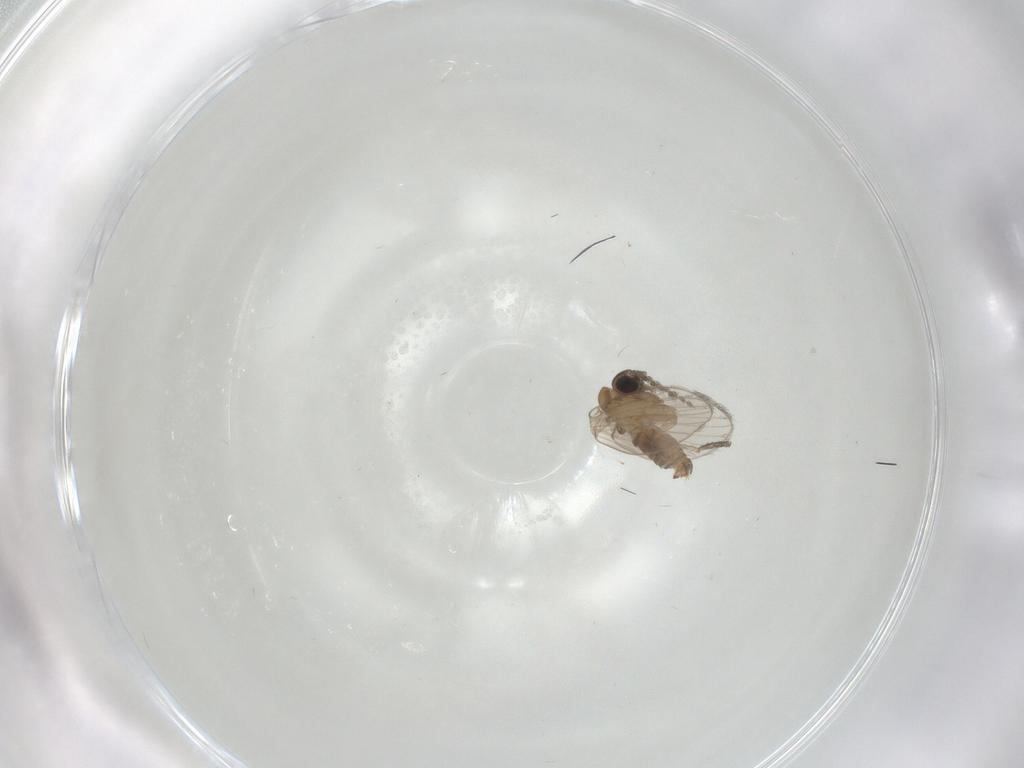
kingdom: Animalia
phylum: Arthropoda
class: Insecta
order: Diptera
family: Psychodidae
